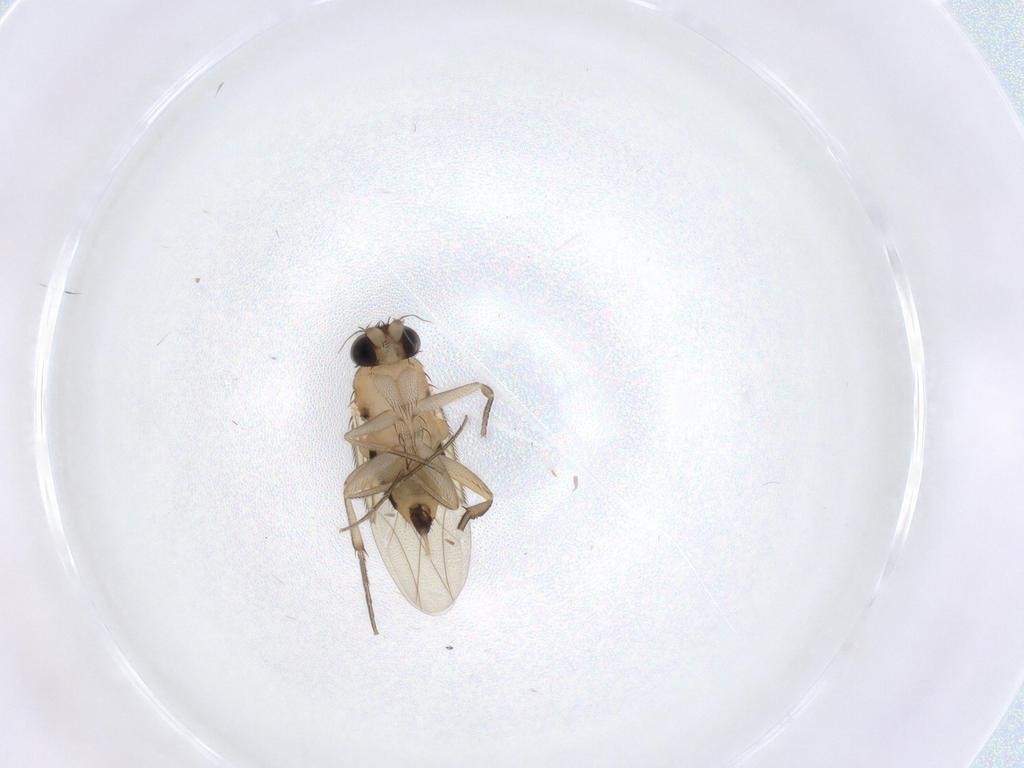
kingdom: Animalia
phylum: Arthropoda
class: Insecta
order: Diptera
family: Phoridae
